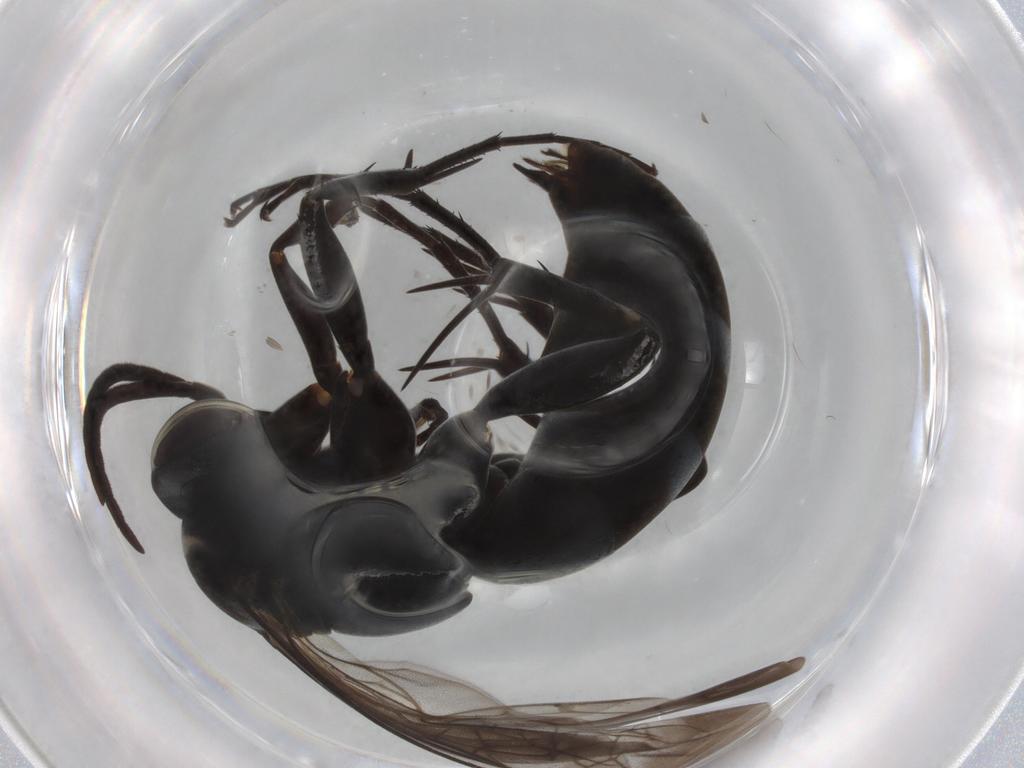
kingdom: Animalia
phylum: Arthropoda
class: Insecta
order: Hymenoptera
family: Pompilidae
